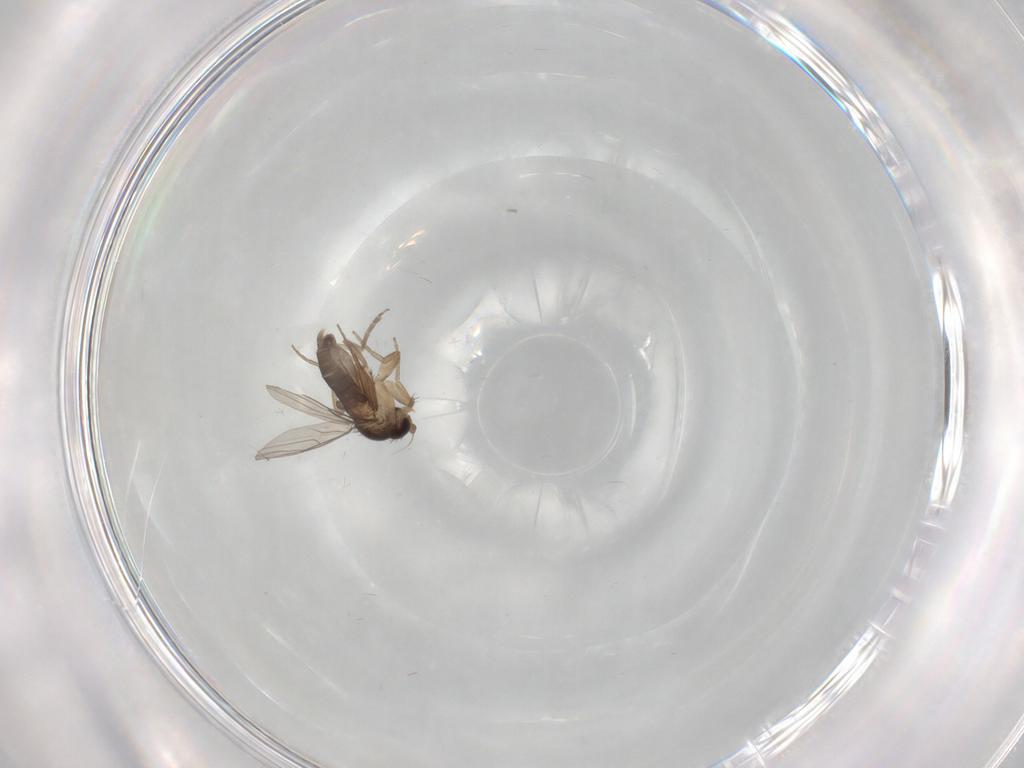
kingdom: Animalia
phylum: Arthropoda
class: Insecta
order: Diptera
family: Phoridae
